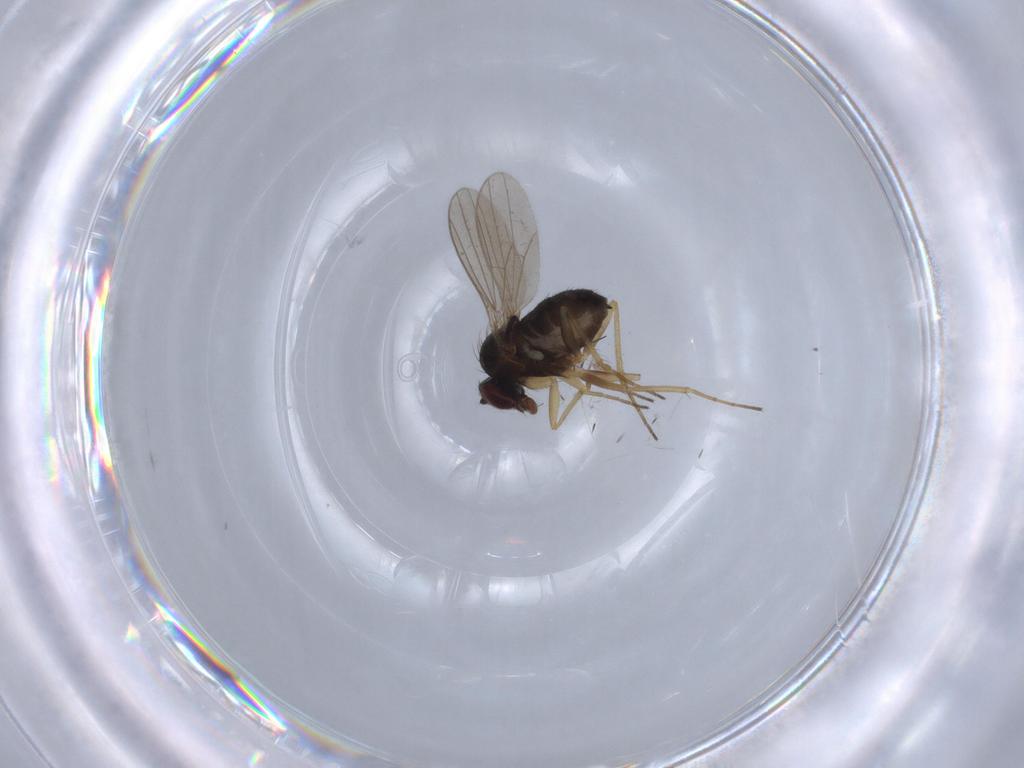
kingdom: Animalia
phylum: Arthropoda
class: Insecta
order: Diptera
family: Dolichopodidae
